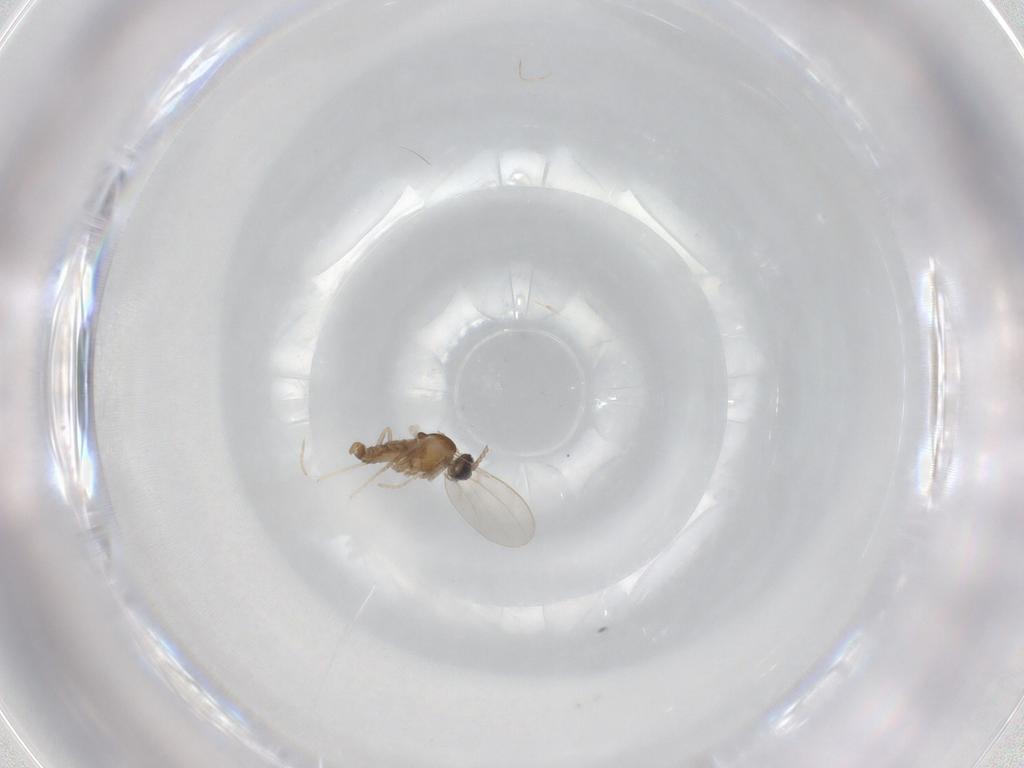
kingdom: Animalia
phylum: Arthropoda
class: Insecta
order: Diptera
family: Cecidomyiidae
